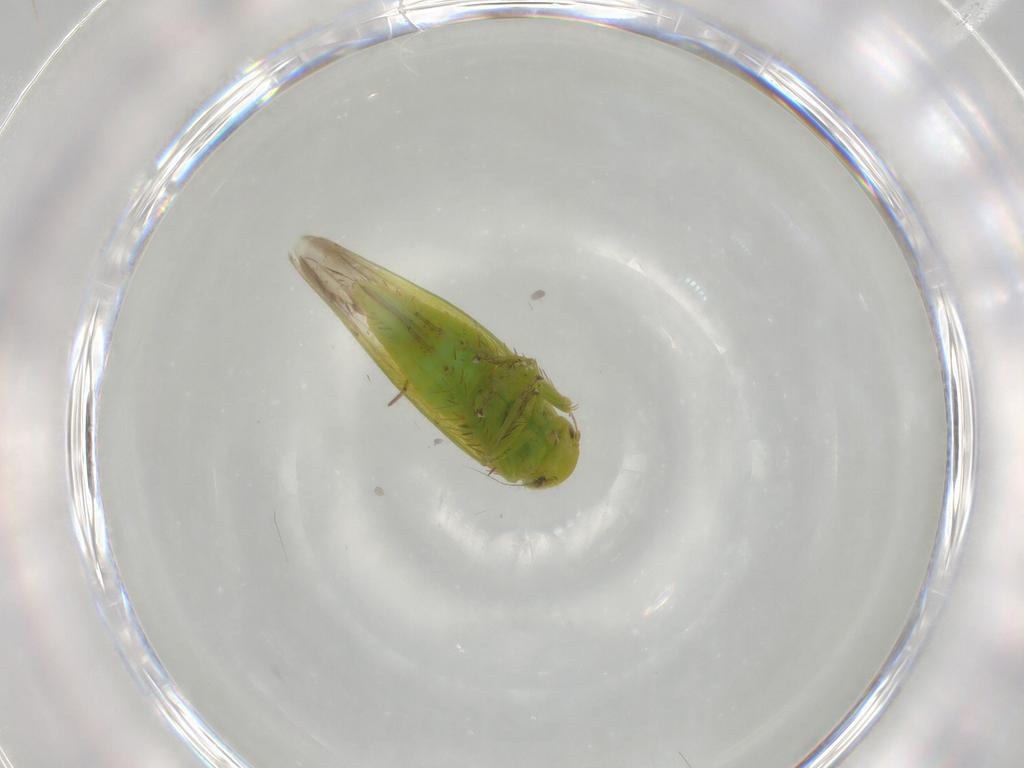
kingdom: Animalia
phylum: Arthropoda
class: Insecta
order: Hemiptera
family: Cicadellidae
